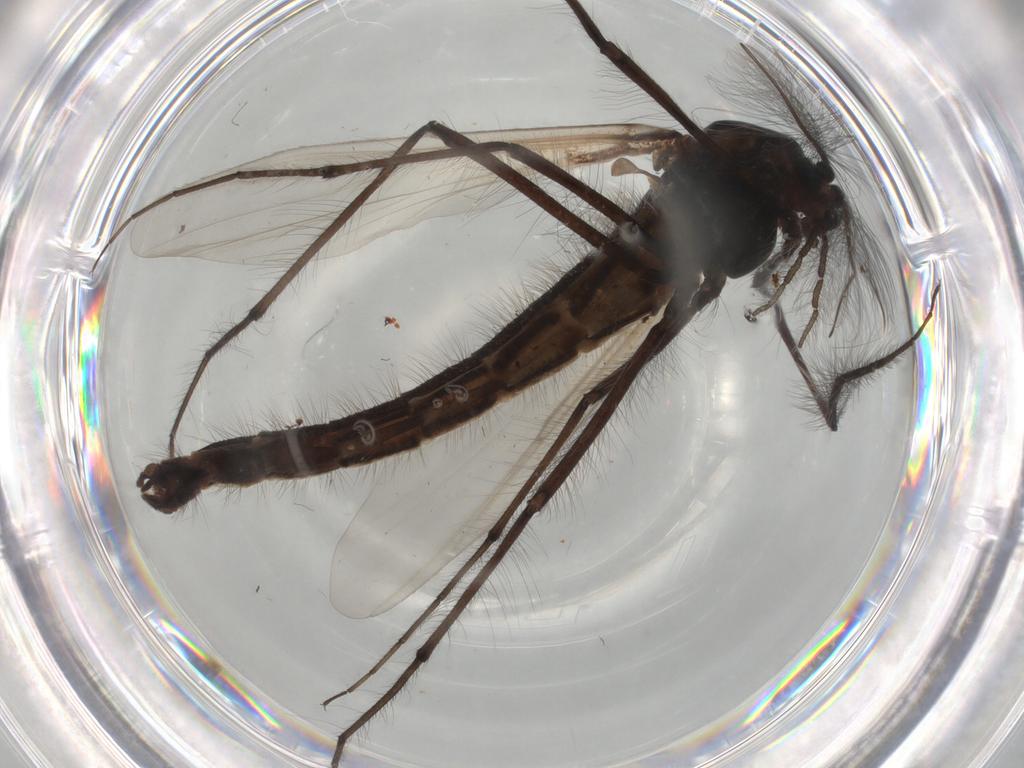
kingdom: Animalia
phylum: Arthropoda
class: Insecta
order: Diptera
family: Chironomidae
